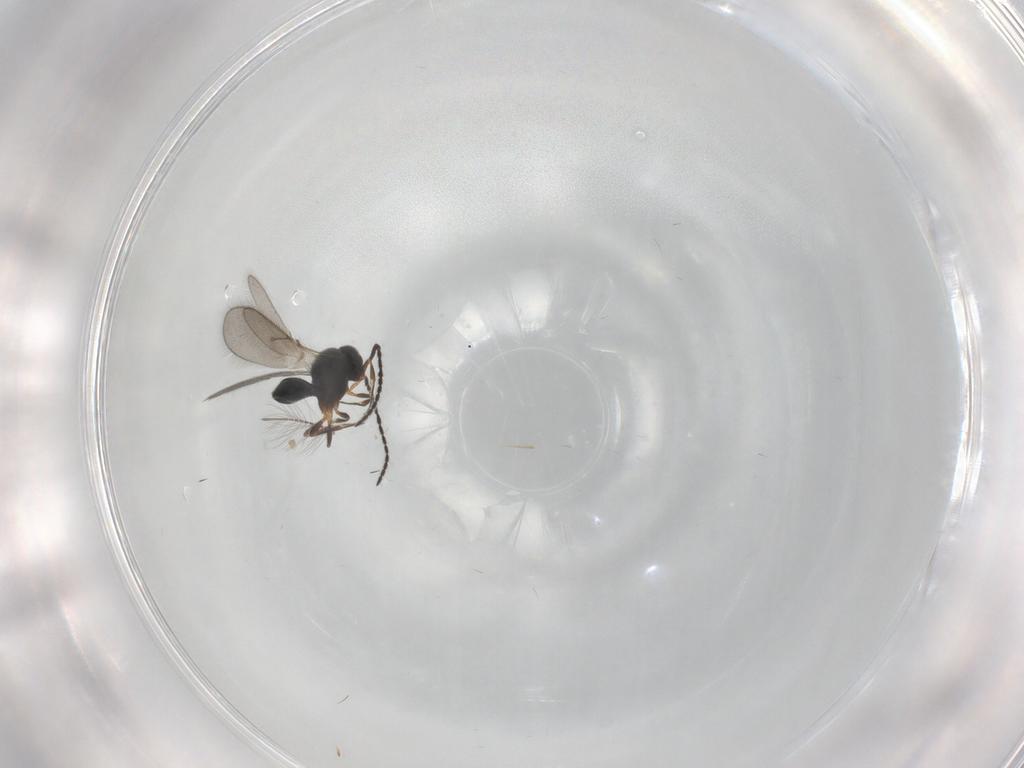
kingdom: Animalia
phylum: Arthropoda
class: Insecta
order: Hymenoptera
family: Scelionidae
